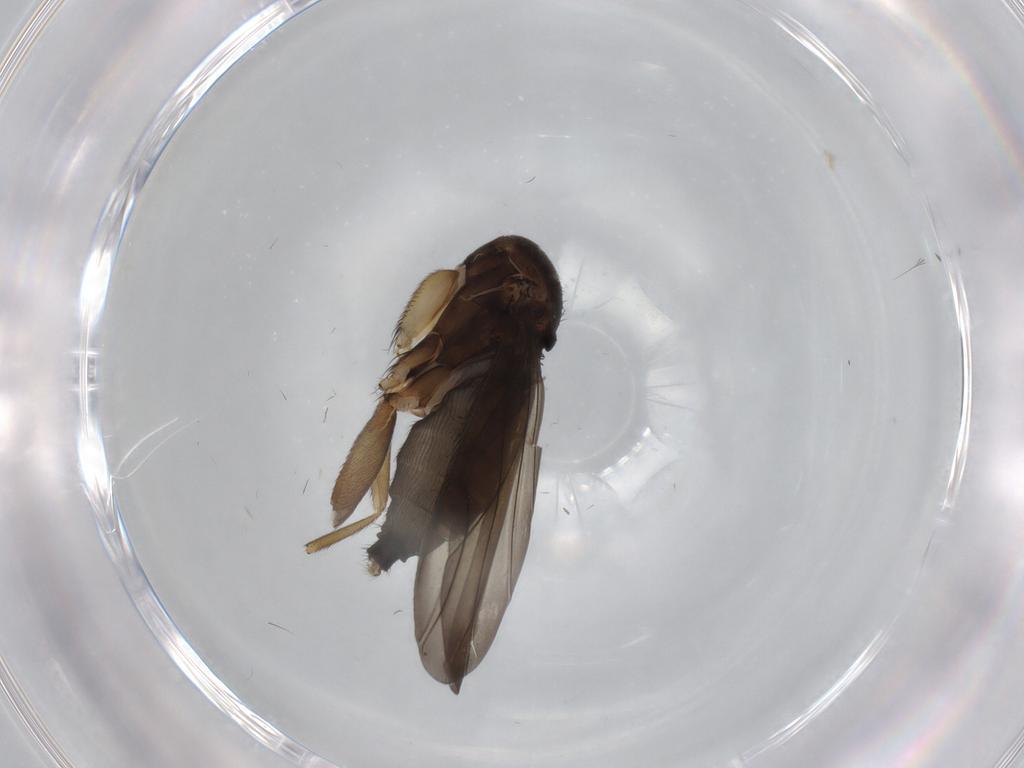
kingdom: Animalia
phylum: Arthropoda
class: Insecta
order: Diptera
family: Phoridae
